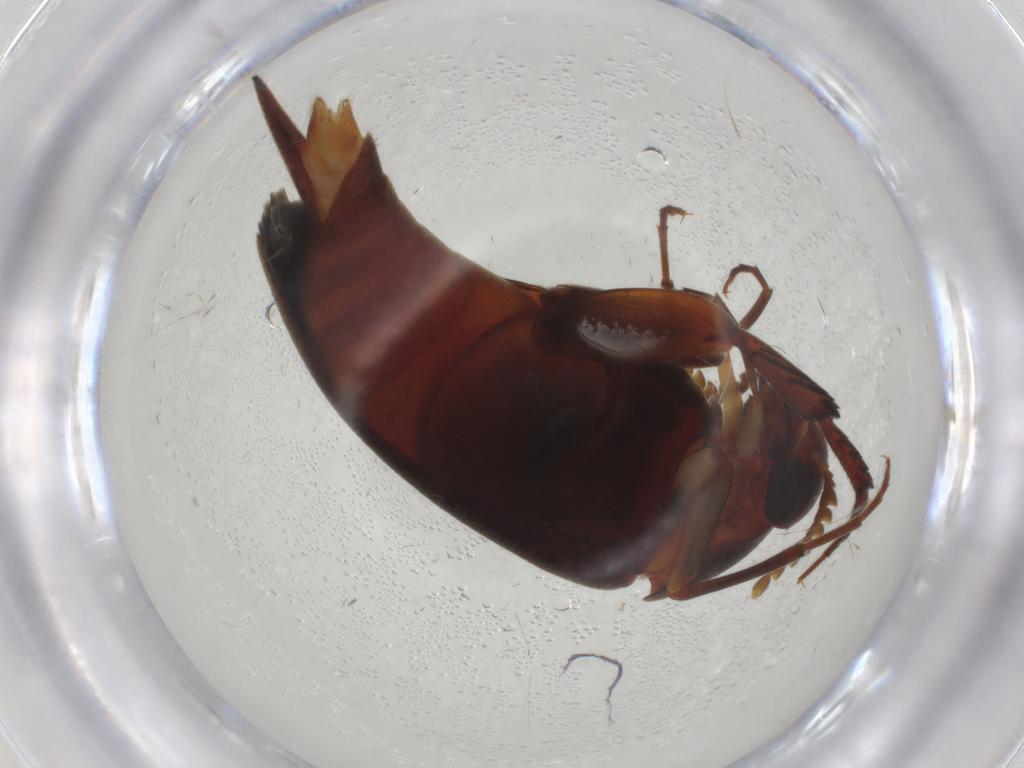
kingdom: Animalia
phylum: Arthropoda
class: Insecta
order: Coleoptera
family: Mordellidae
